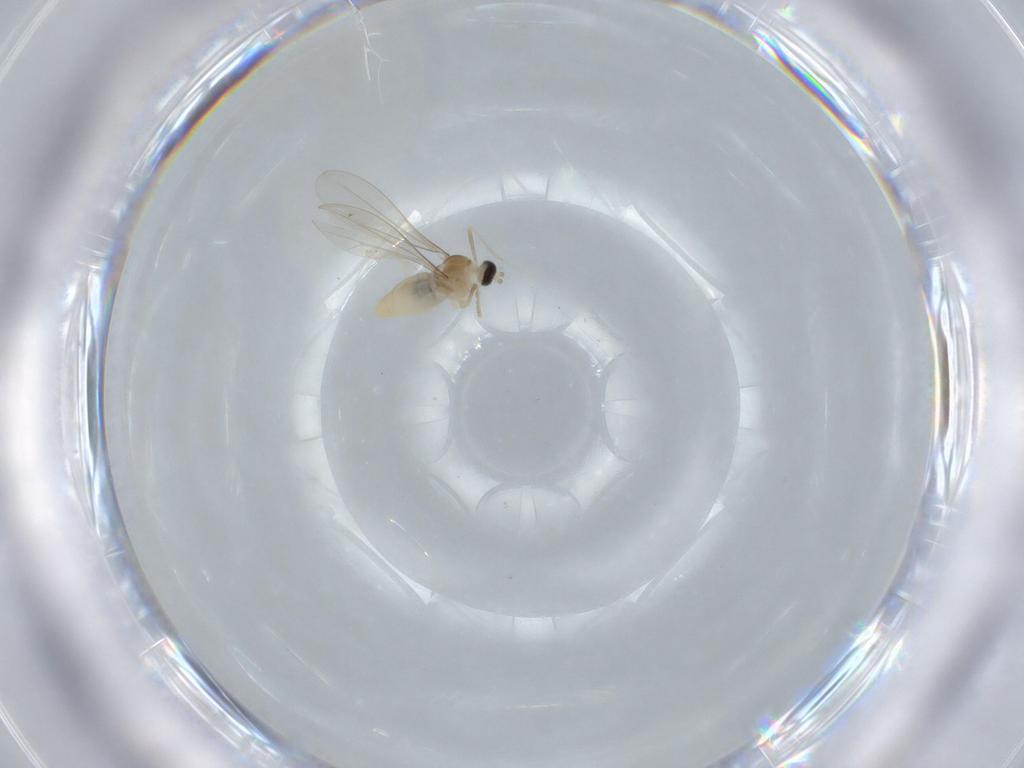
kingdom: Animalia
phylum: Arthropoda
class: Insecta
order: Diptera
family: Cecidomyiidae
